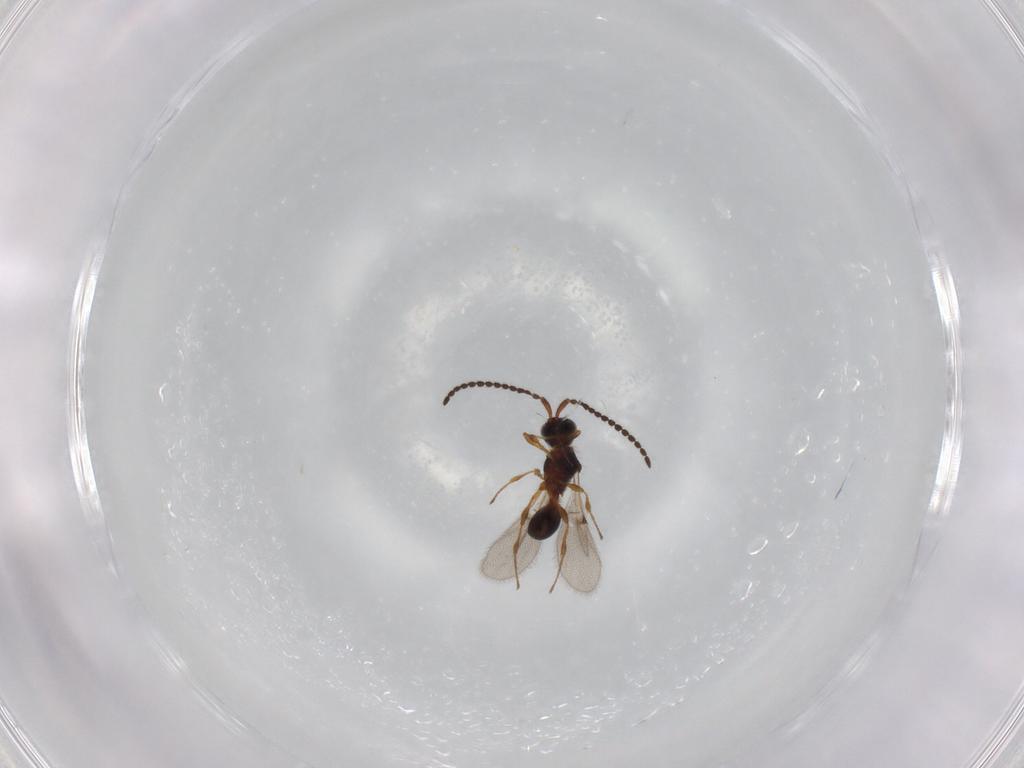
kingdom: Animalia
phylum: Arthropoda
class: Insecta
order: Hymenoptera
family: Diapriidae
